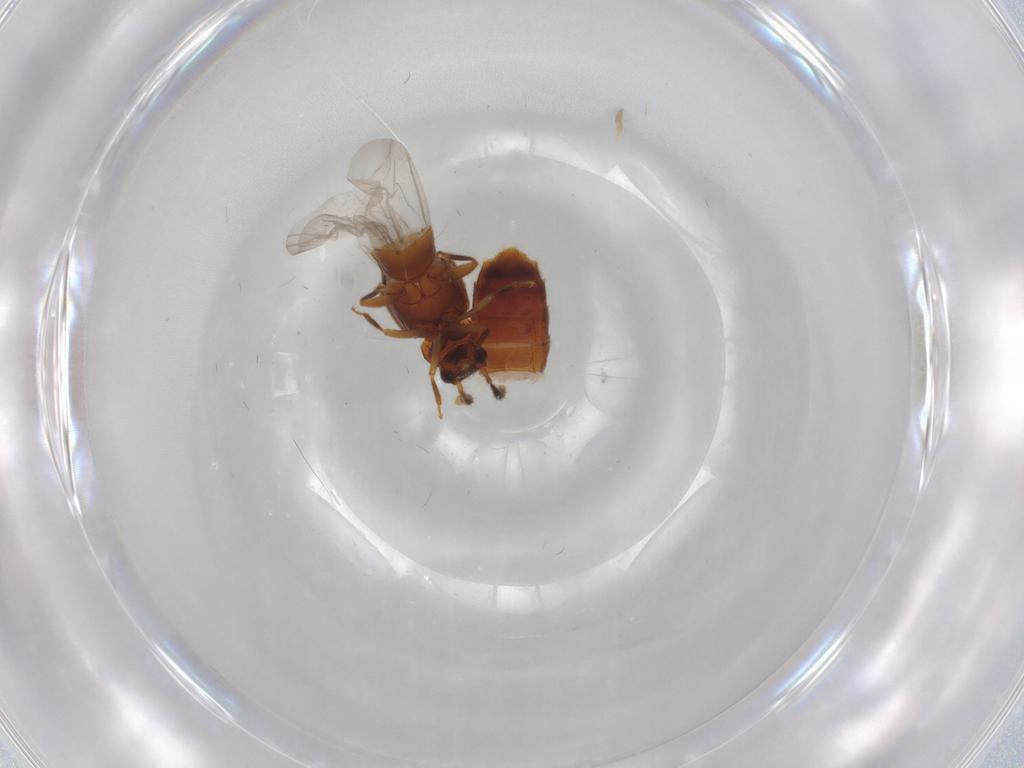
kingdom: Animalia
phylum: Arthropoda
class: Insecta
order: Coleoptera
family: Staphylinidae
